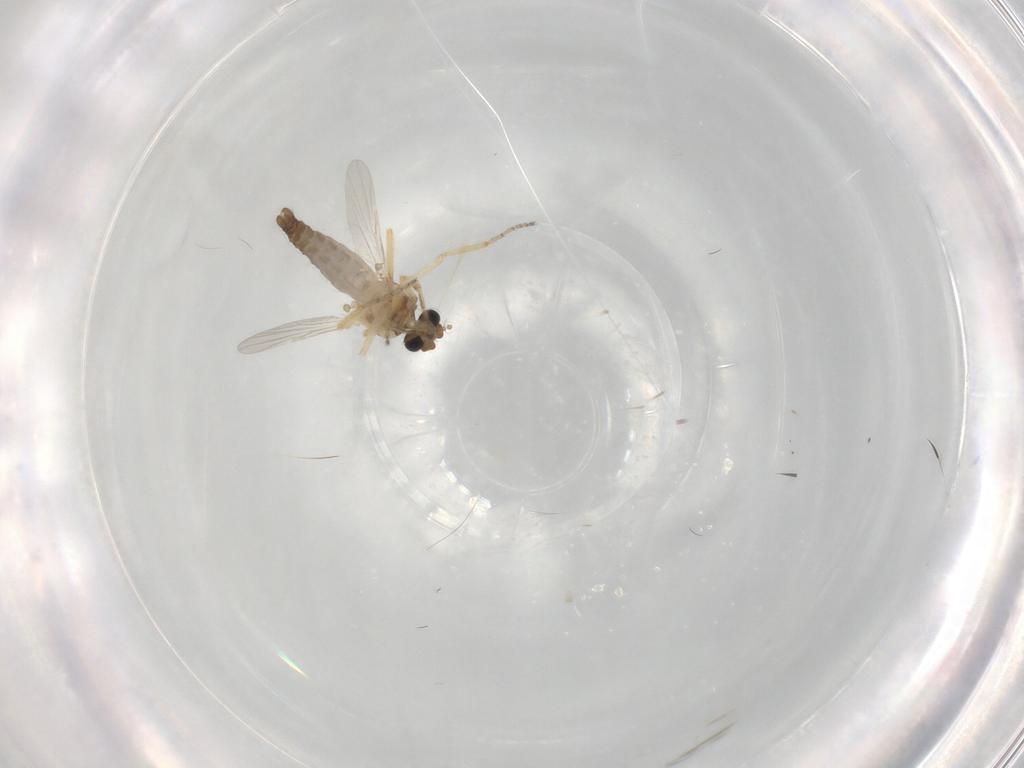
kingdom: Animalia
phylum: Arthropoda
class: Insecta
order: Diptera
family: Ceratopogonidae
